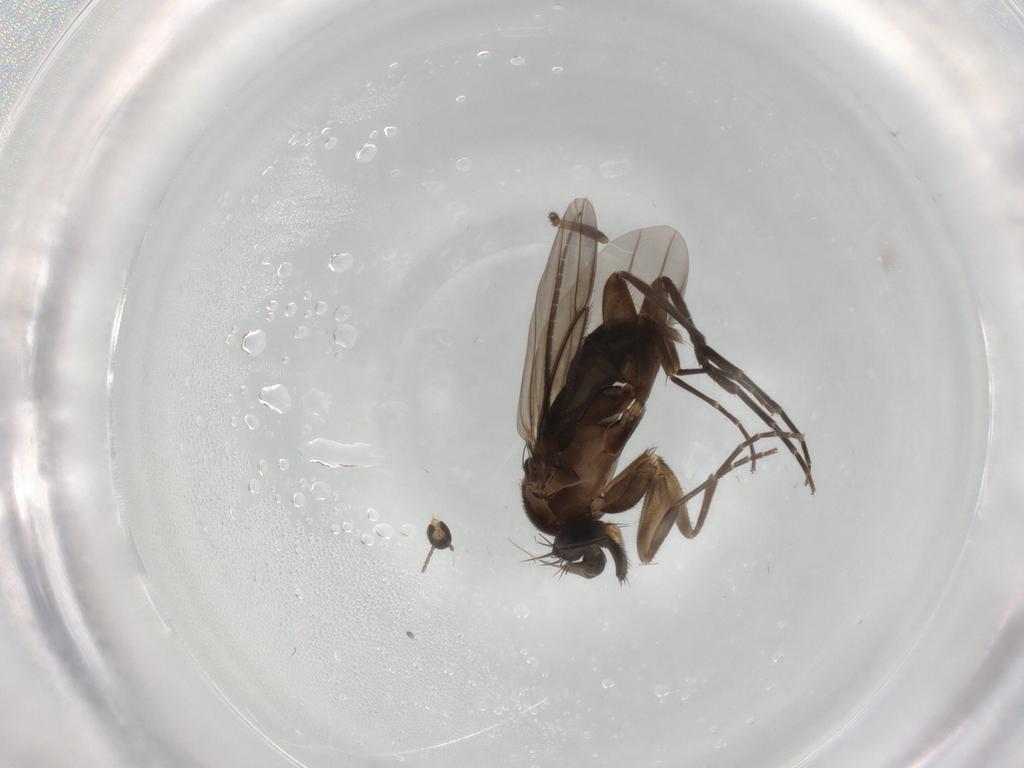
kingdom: Animalia
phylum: Arthropoda
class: Insecta
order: Diptera
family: Phoridae
